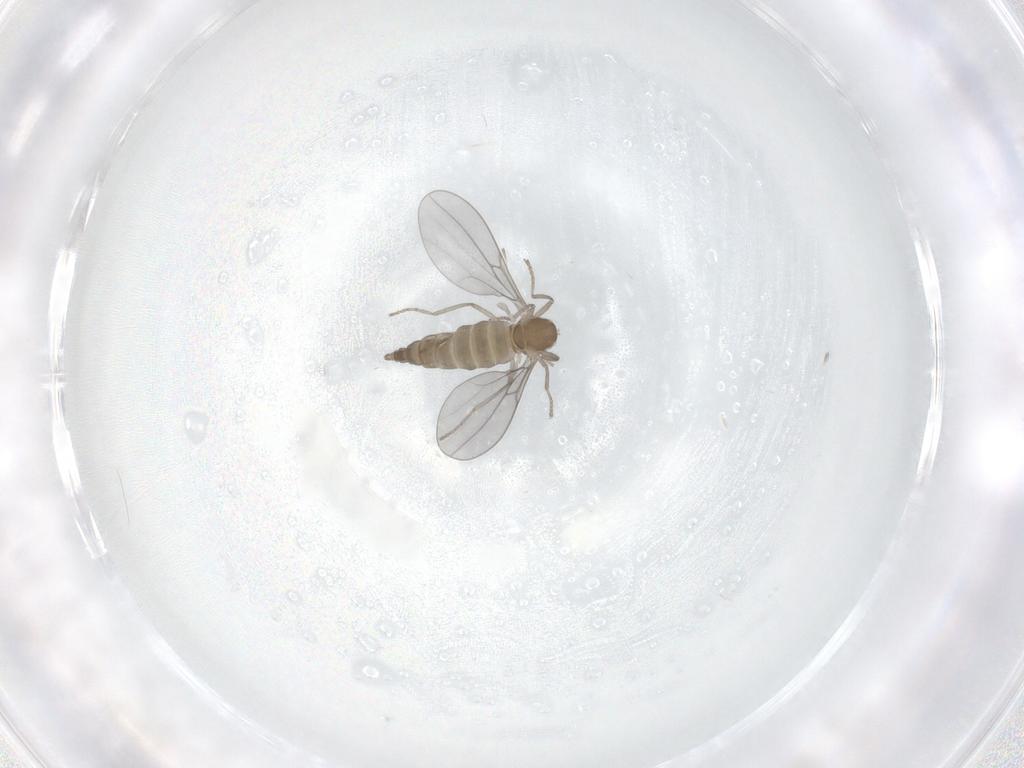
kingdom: Animalia
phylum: Arthropoda
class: Insecta
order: Diptera
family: Cecidomyiidae
